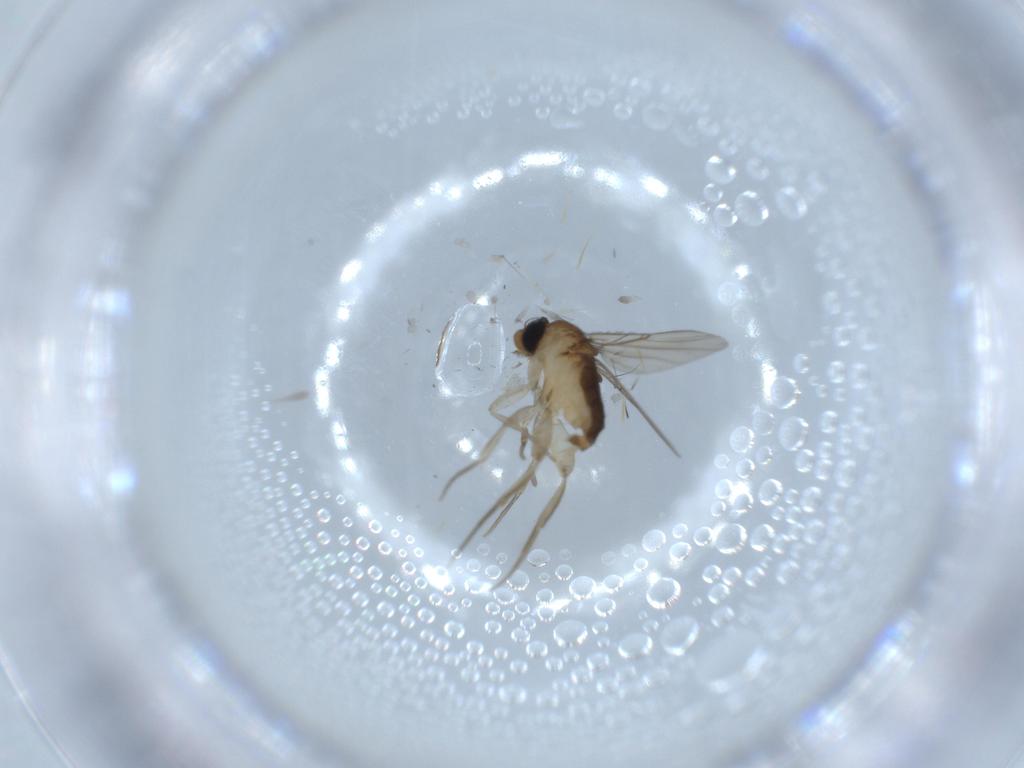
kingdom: Animalia
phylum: Arthropoda
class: Insecta
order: Diptera
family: Phoridae
